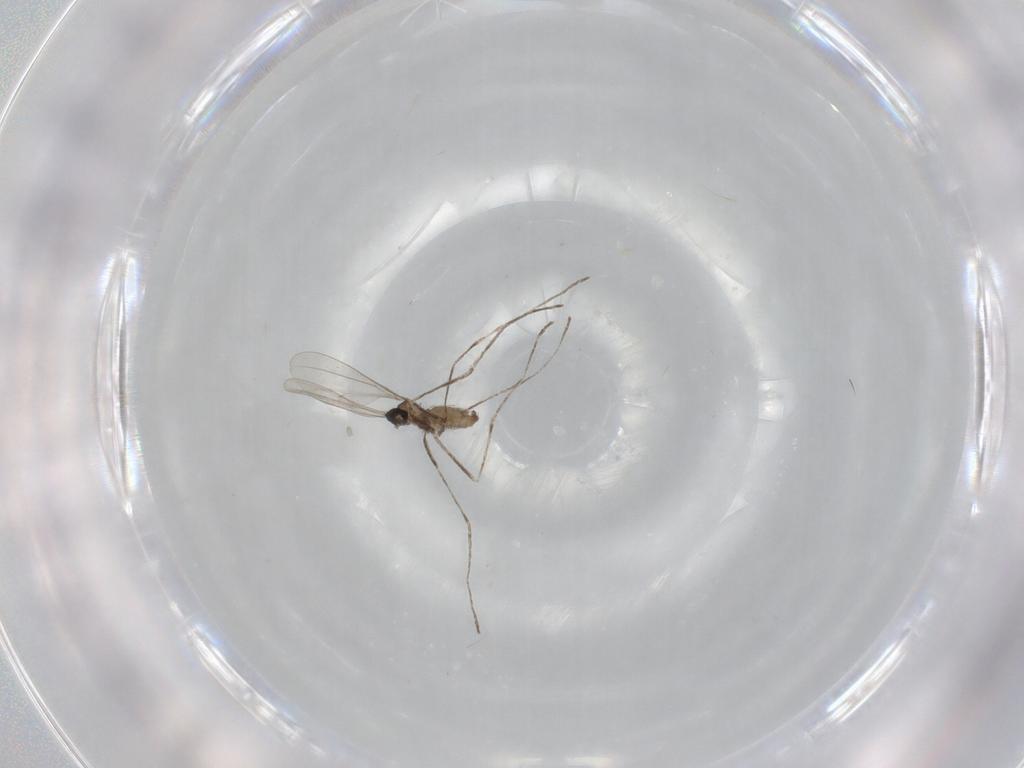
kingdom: Animalia
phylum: Arthropoda
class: Insecta
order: Diptera
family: Cecidomyiidae
